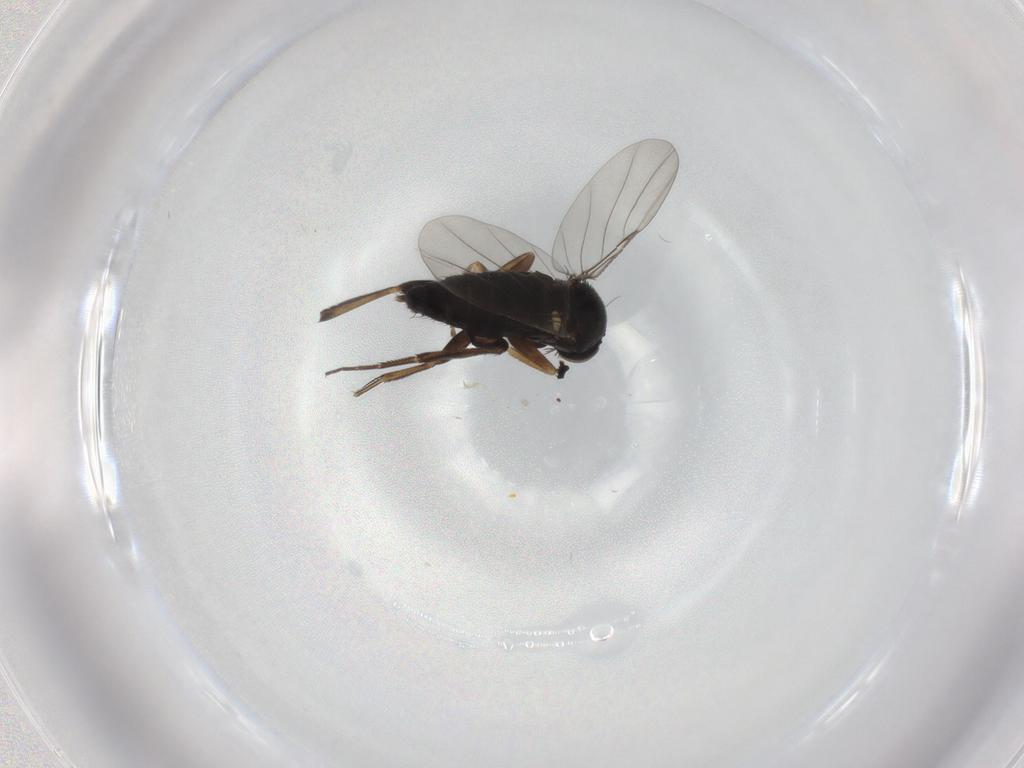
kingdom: Animalia
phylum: Arthropoda
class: Insecta
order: Diptera
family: Phoridae
